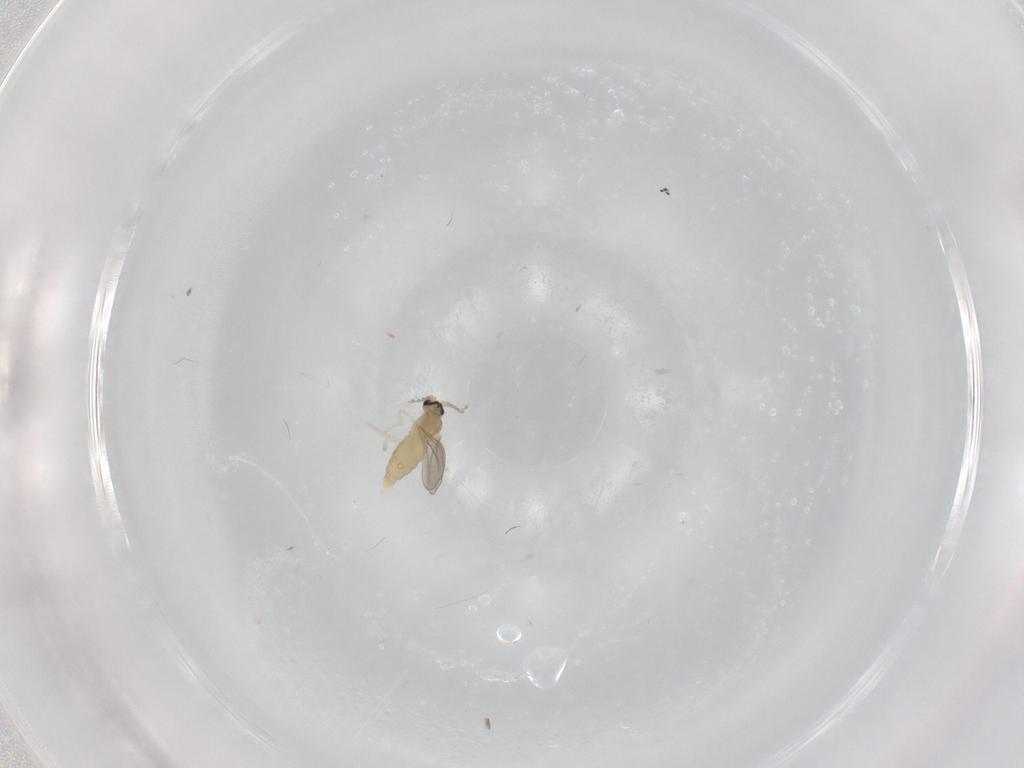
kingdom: Animalia
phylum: Arthropoda
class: Insecta
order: Diptera
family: Cecidomyiidae
